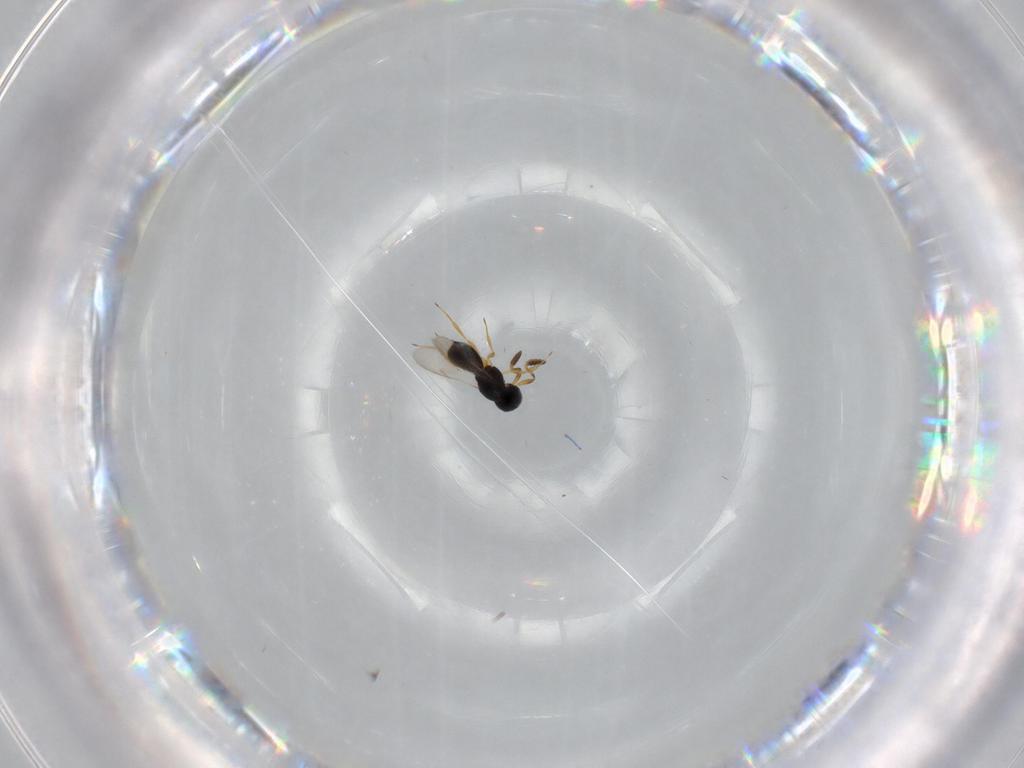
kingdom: Animalia
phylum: Arthropoda
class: Insecta
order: Hymenoptera
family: Scelionidae
